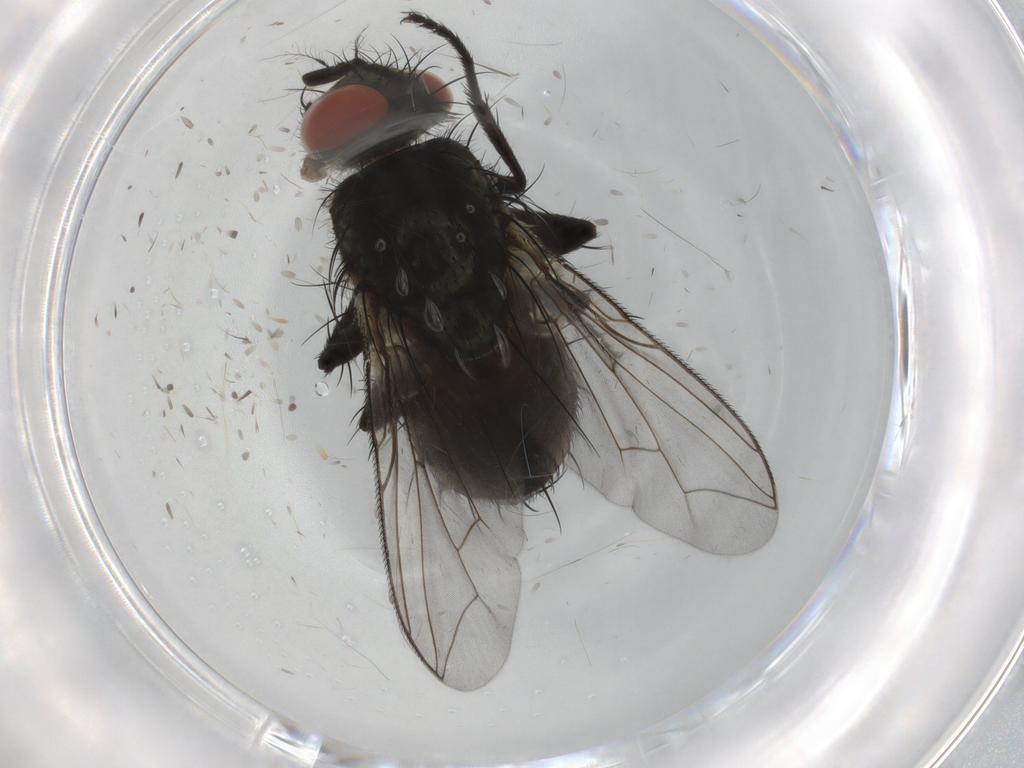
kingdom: Animalia
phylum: Arthropoda
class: Insecta
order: Diptera
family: Sarcophagidae
